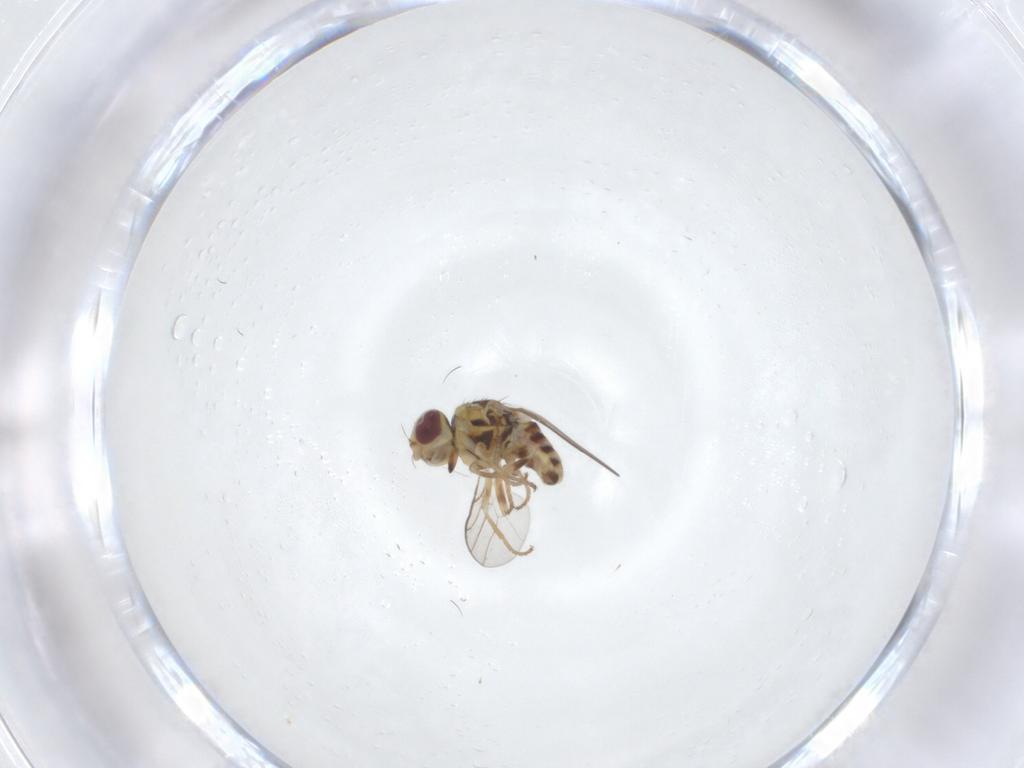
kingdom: Animalia
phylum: Arthropoda
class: Insecta
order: Diptera
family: Chloropidae
